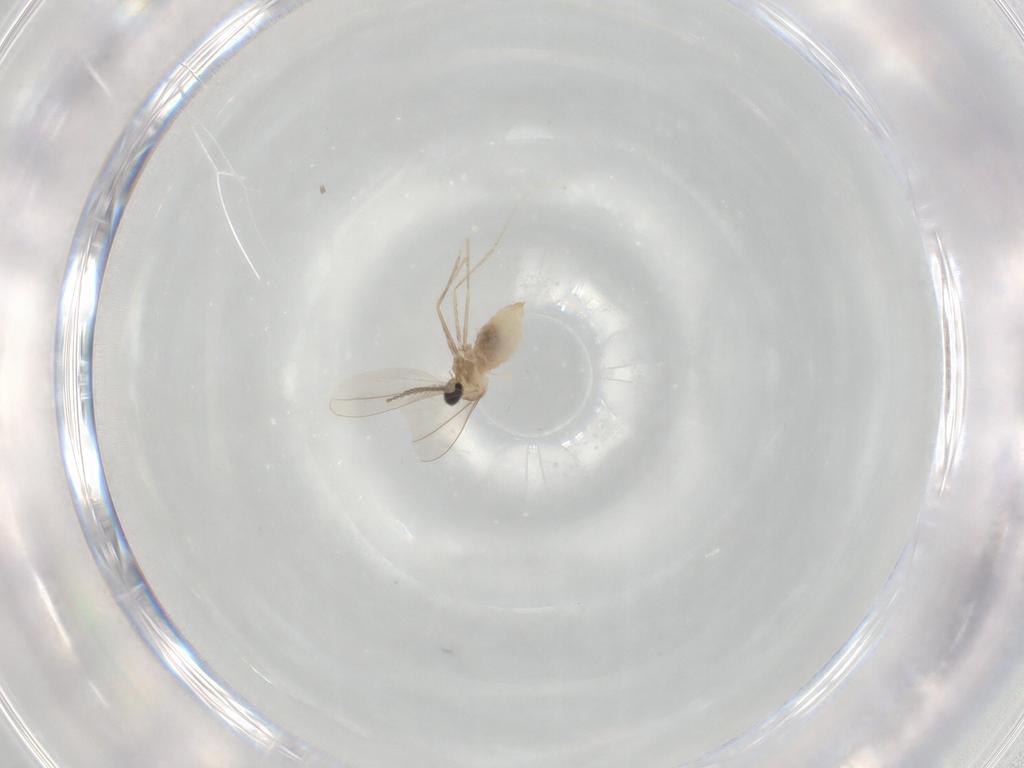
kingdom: Animalia
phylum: Arthropoda
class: Insecta
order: Diptera
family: Cecidomyiidae
